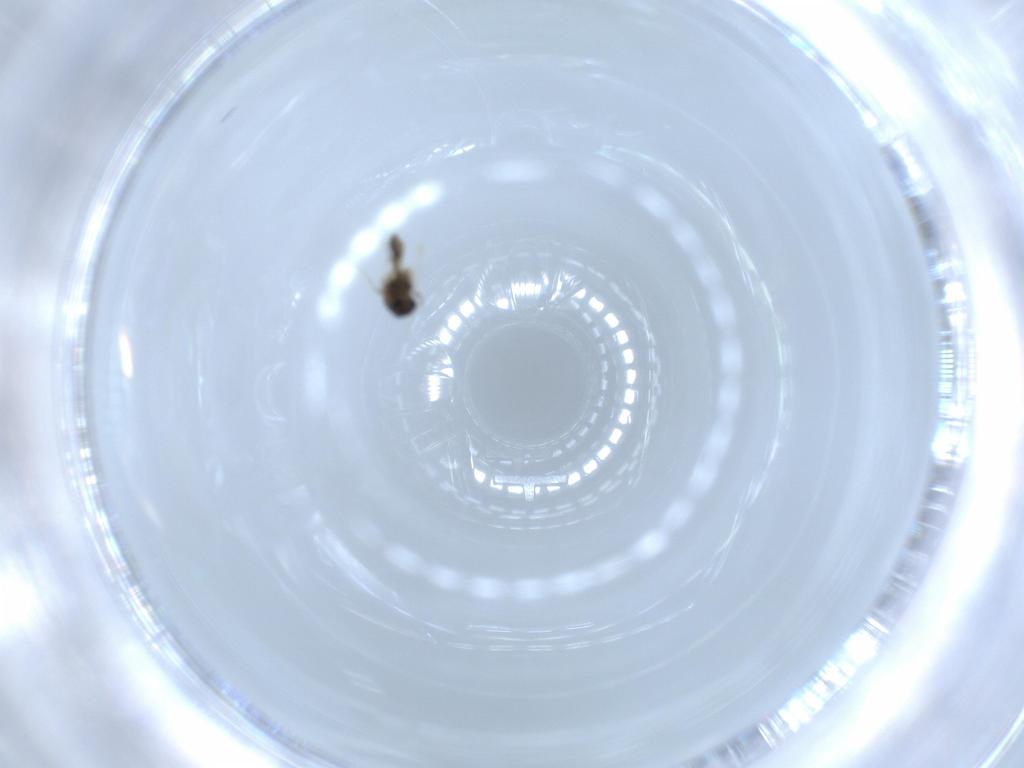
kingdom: Animalia
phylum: Arthropoda
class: Insecta
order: Diptera
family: Chironomidae
